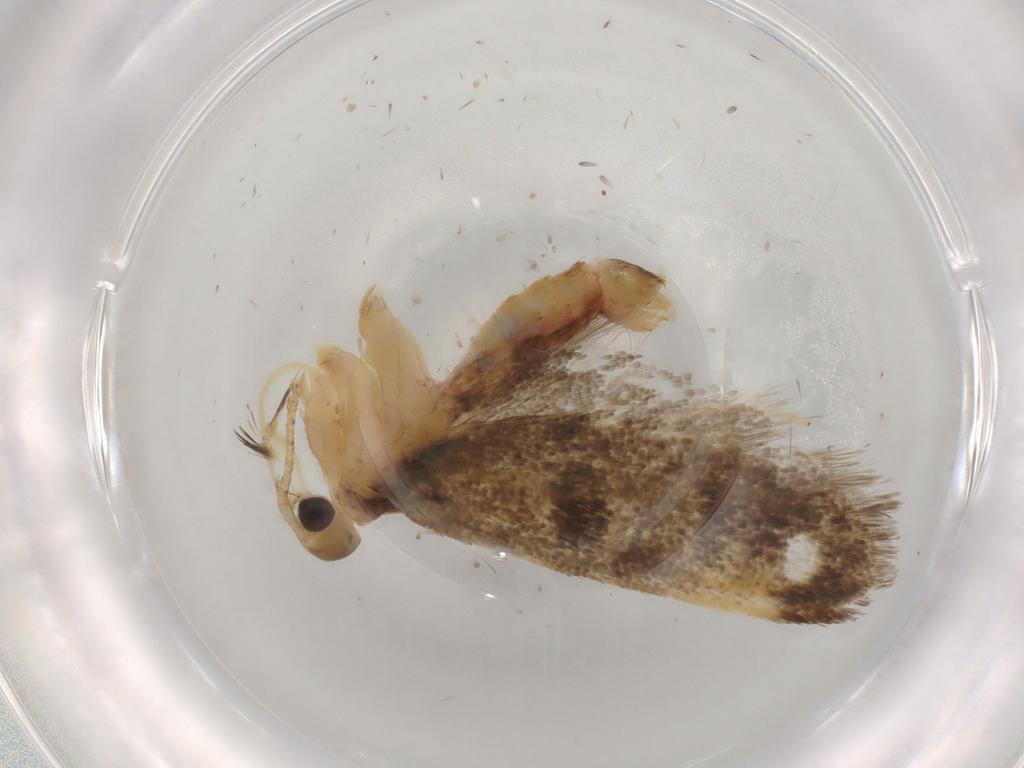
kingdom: Animalia
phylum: Arthropoda
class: Insecta
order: Lepidoptera
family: Lecithoceridae
